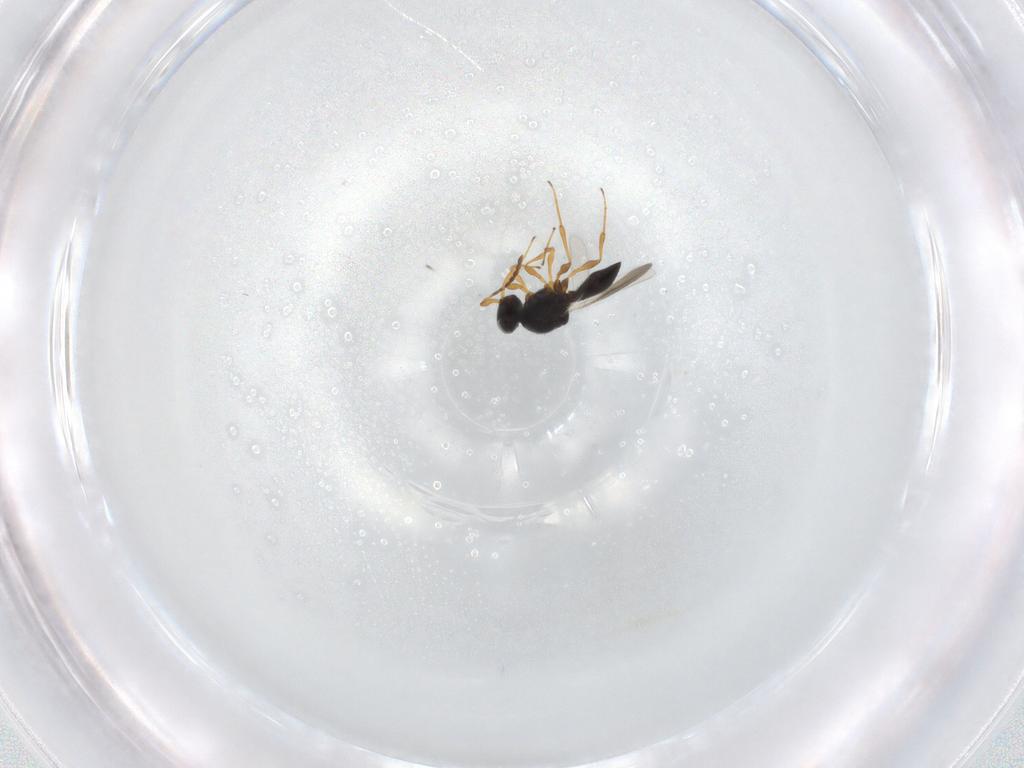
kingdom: Animalia
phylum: Arthropoda
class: Insecta
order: Hymenoptera
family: Platygastridae
